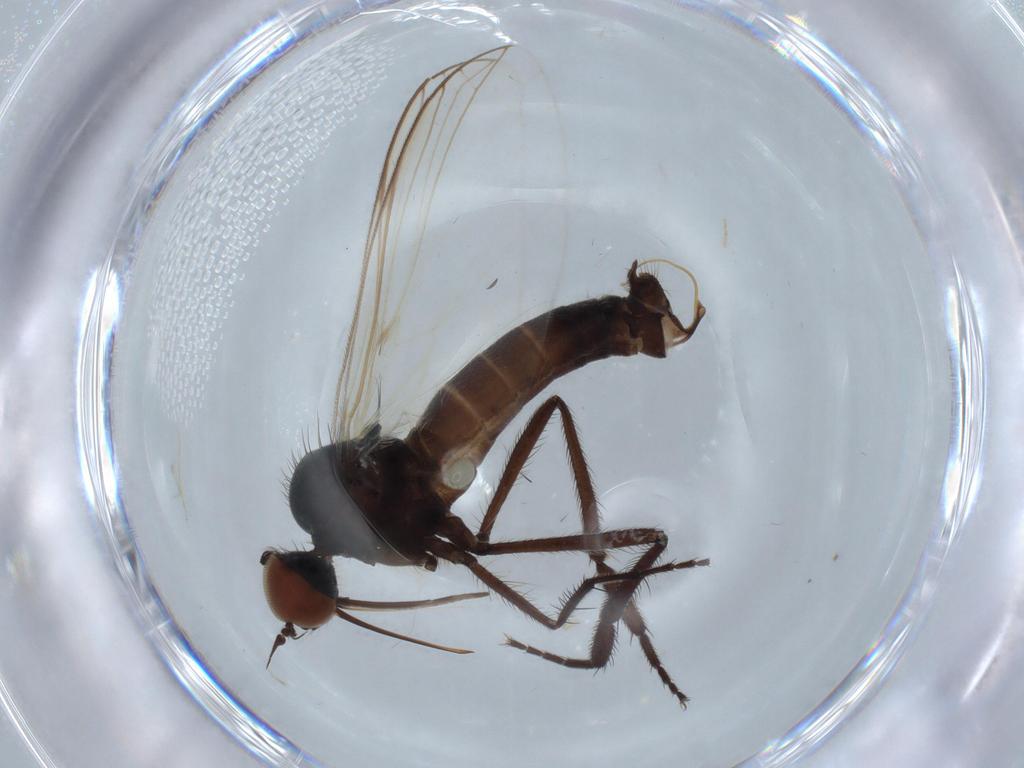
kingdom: Animalia
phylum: Arthropoda
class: Insecta
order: Diptera
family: Empididae
